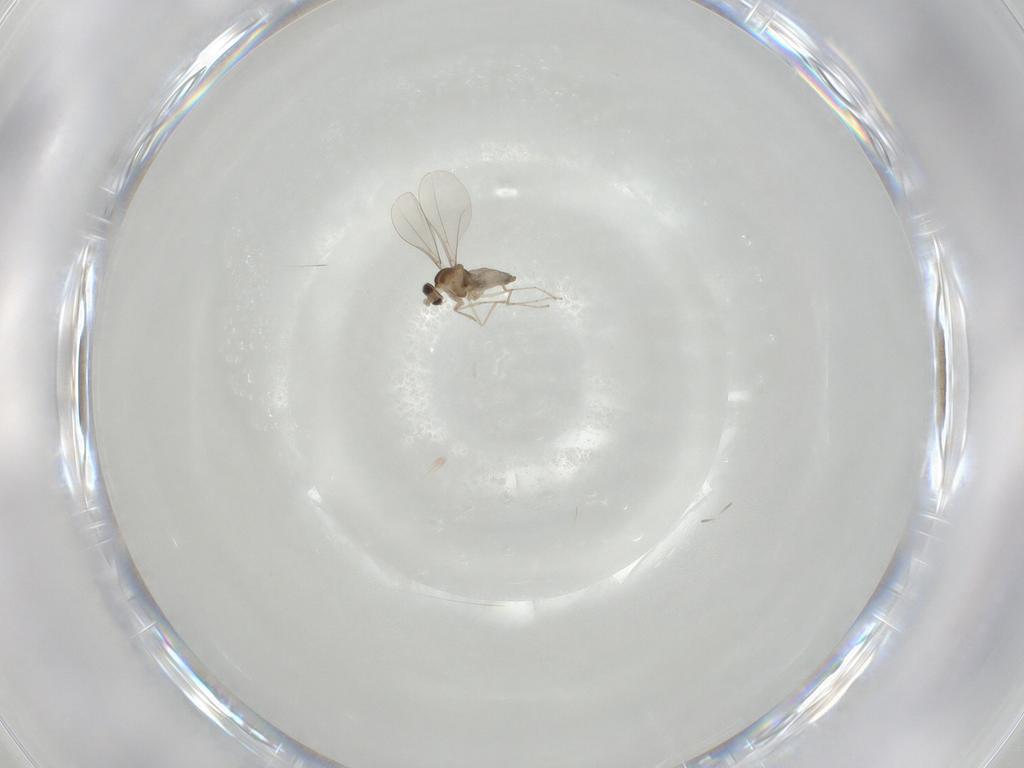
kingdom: Animalia
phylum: Arthropoda
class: Insecta
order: Diptera
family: Cecidomyiidae
